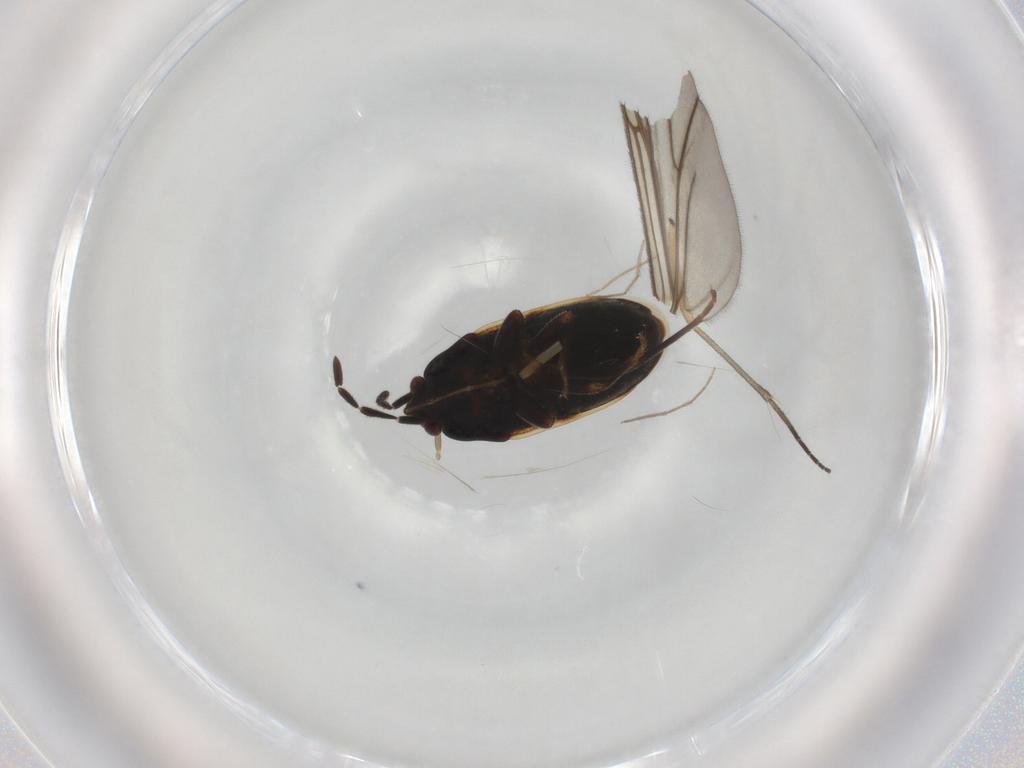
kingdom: Animalia
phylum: Arthropoda
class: Insecta
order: Hemiptera
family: Rhyparochromidae
